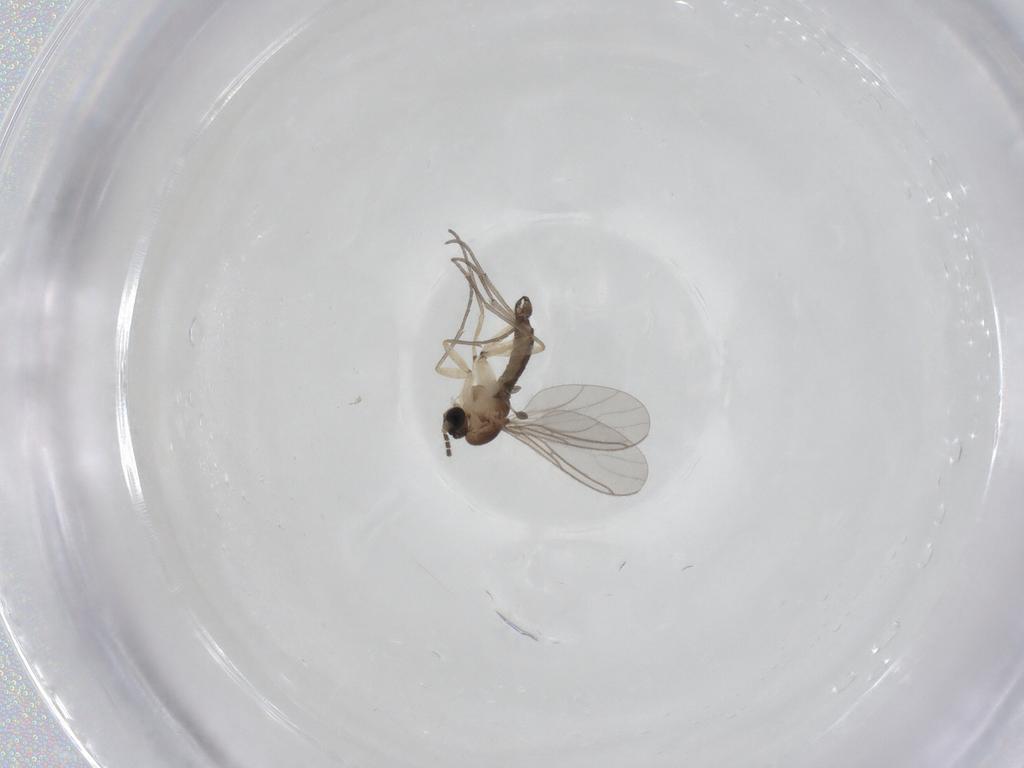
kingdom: Animalia
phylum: Arthropoda
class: Insecta
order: Diptera
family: Sciaridae
